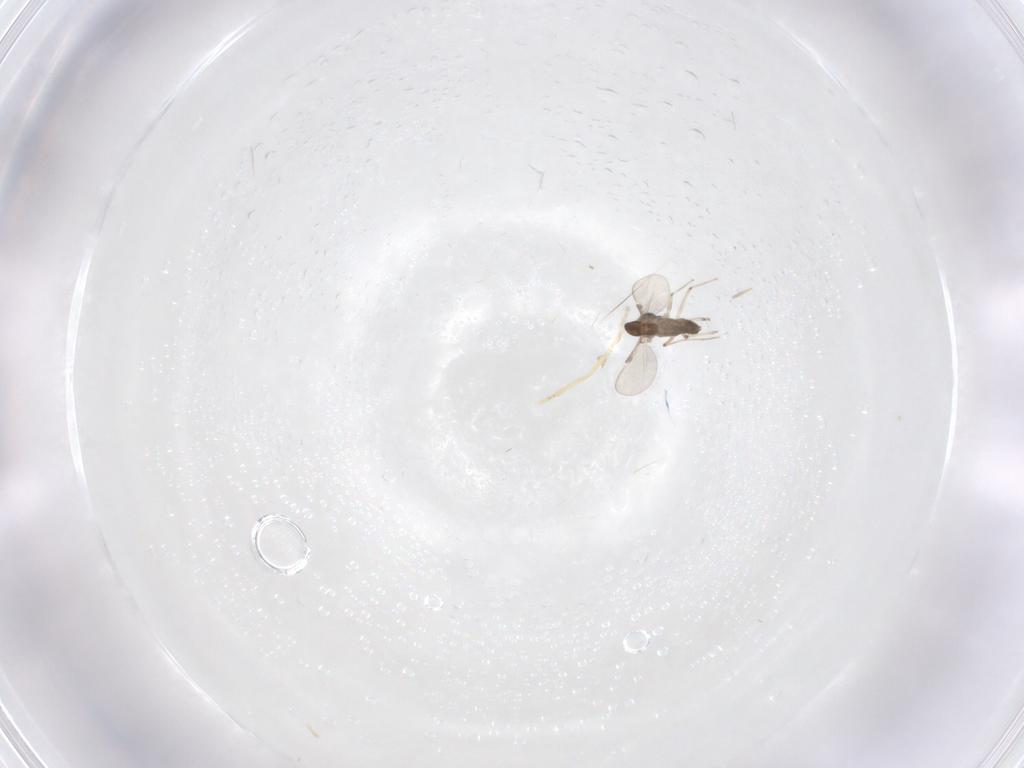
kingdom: Animalia
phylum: Arthropoda
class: Insecta
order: Diptera
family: Chironomidae
